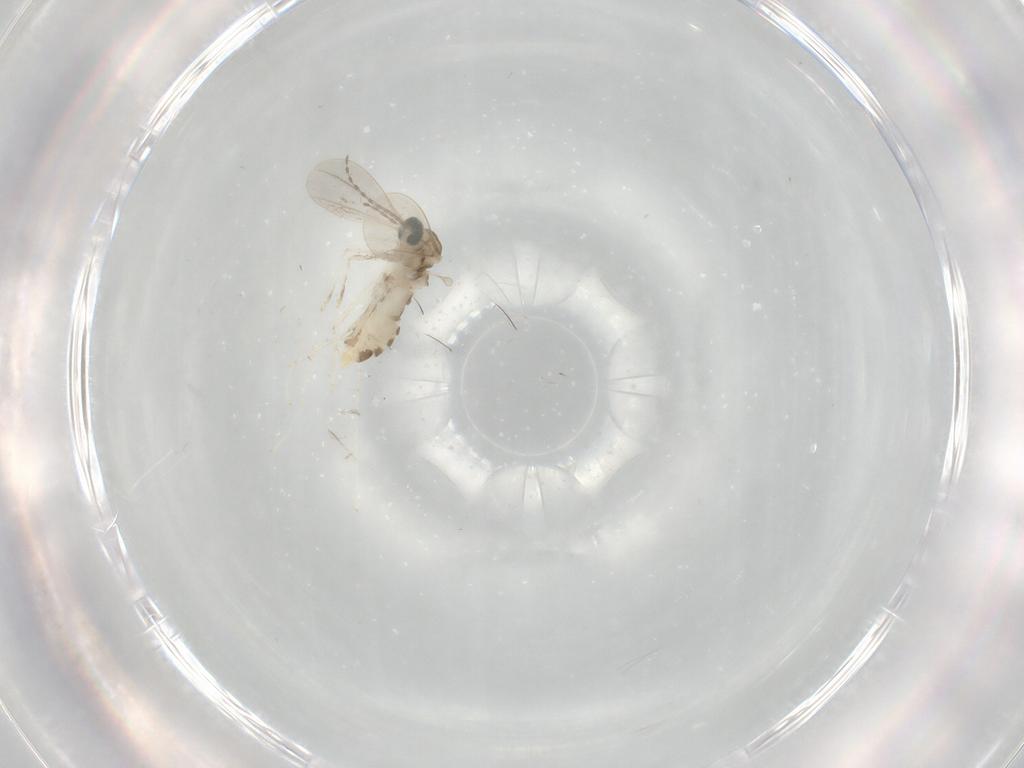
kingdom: Animalia
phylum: Arthropoda
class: Insecta
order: Diptera
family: Cecidomyiidae
